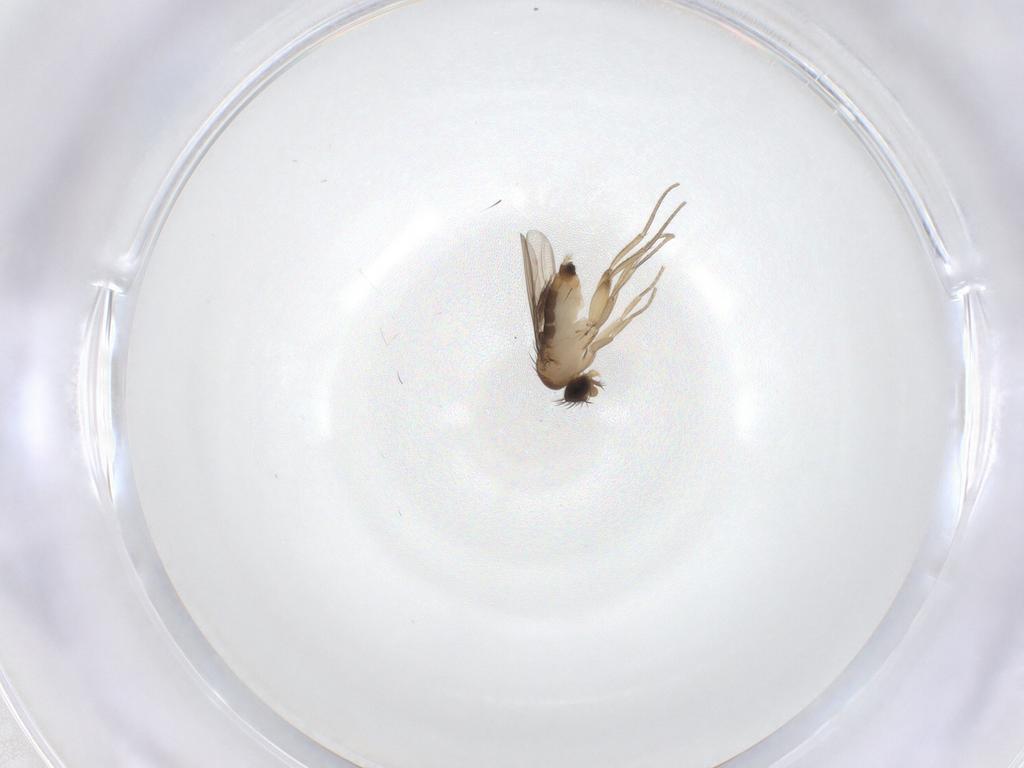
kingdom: Animalia
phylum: Arthropoda
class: Insecta
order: Diptera
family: Phoridae
